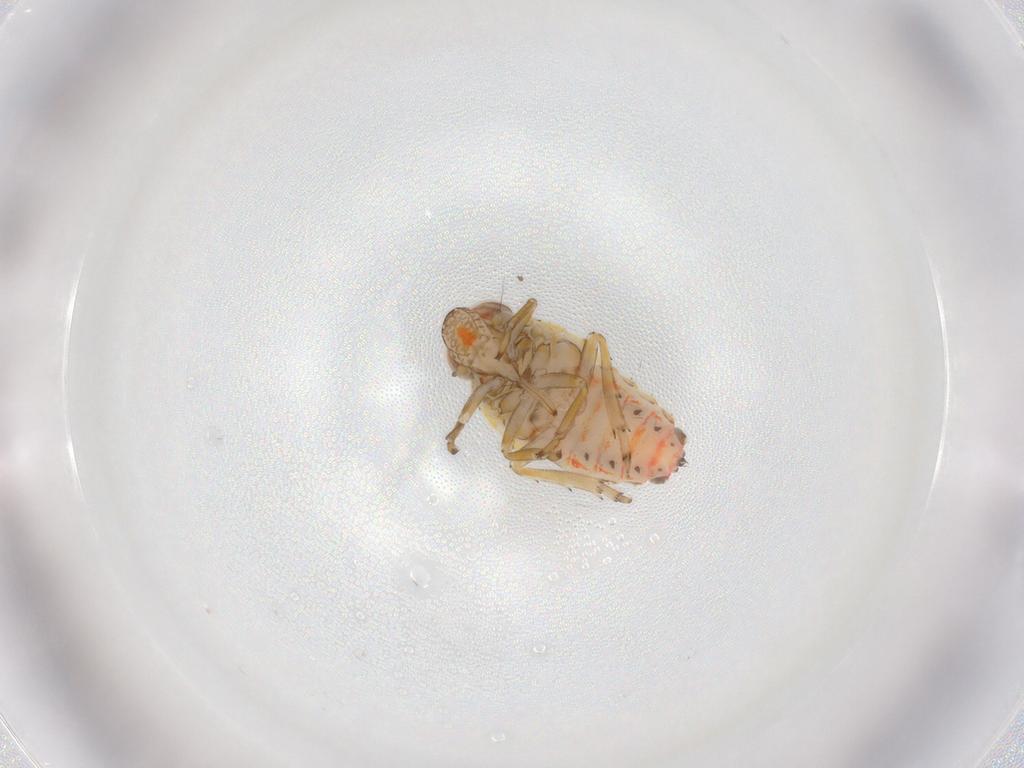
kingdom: Animalia
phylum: Arthropoda
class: Insecta
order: Hemiptera
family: Issidae
